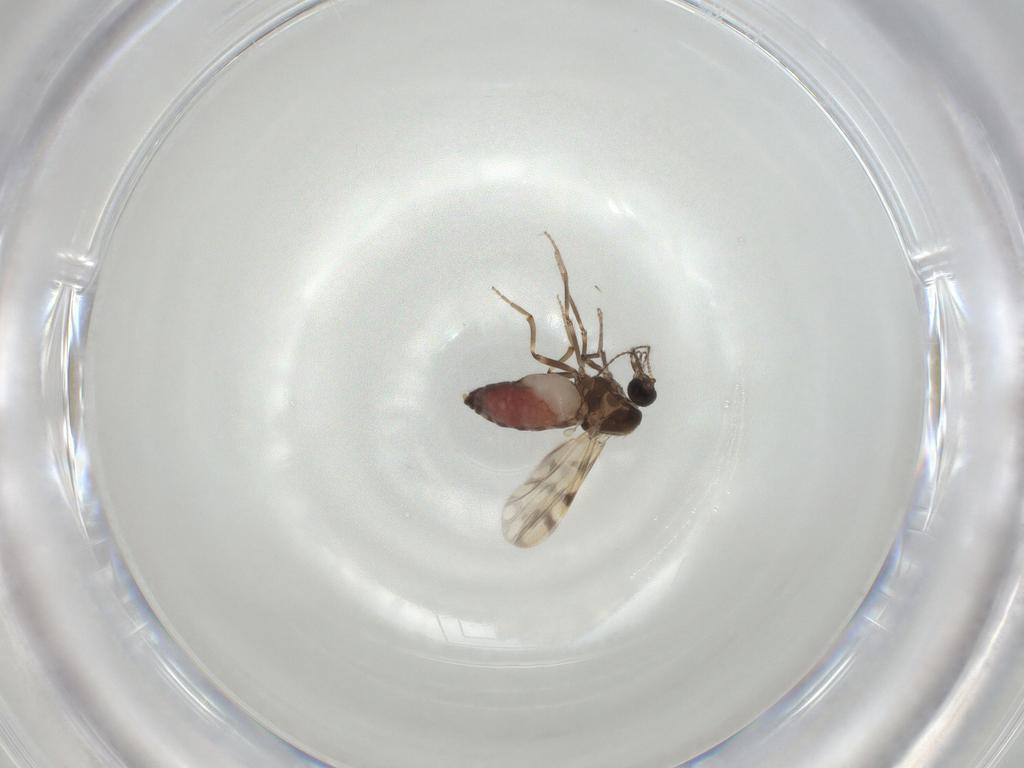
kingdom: Animalia
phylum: Arthropoda
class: Insecta
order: Diptera
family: Ceratopogonidae
